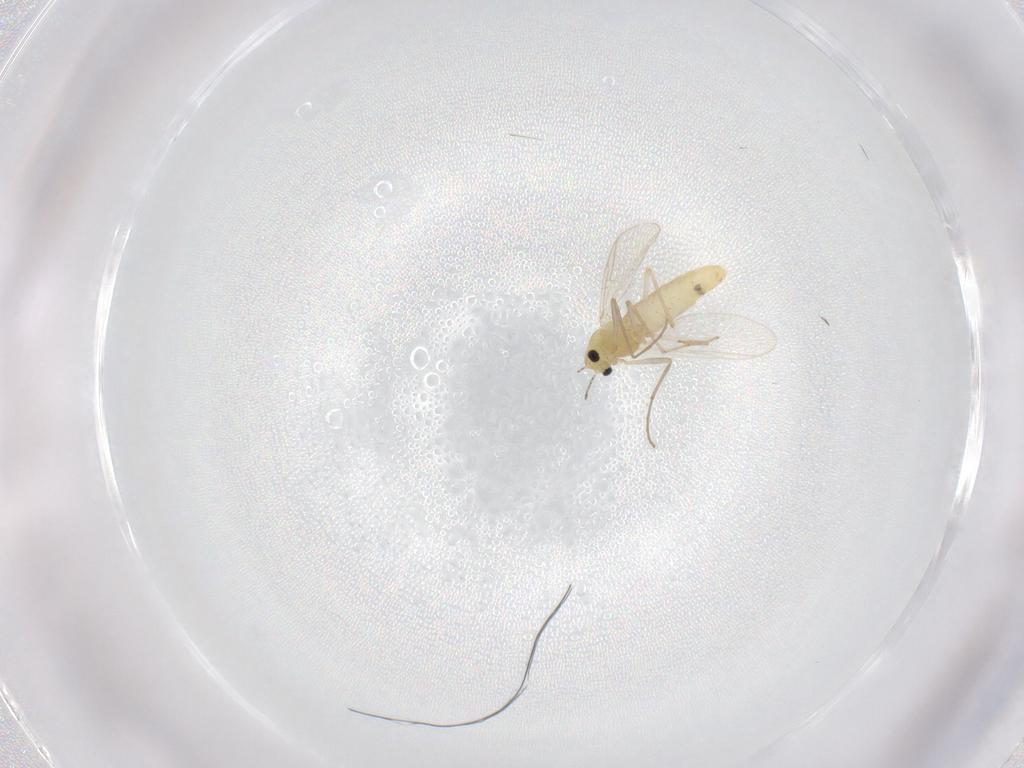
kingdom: Animalia
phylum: Arthropoda
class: Insecta
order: Diptera
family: Chironomidae
